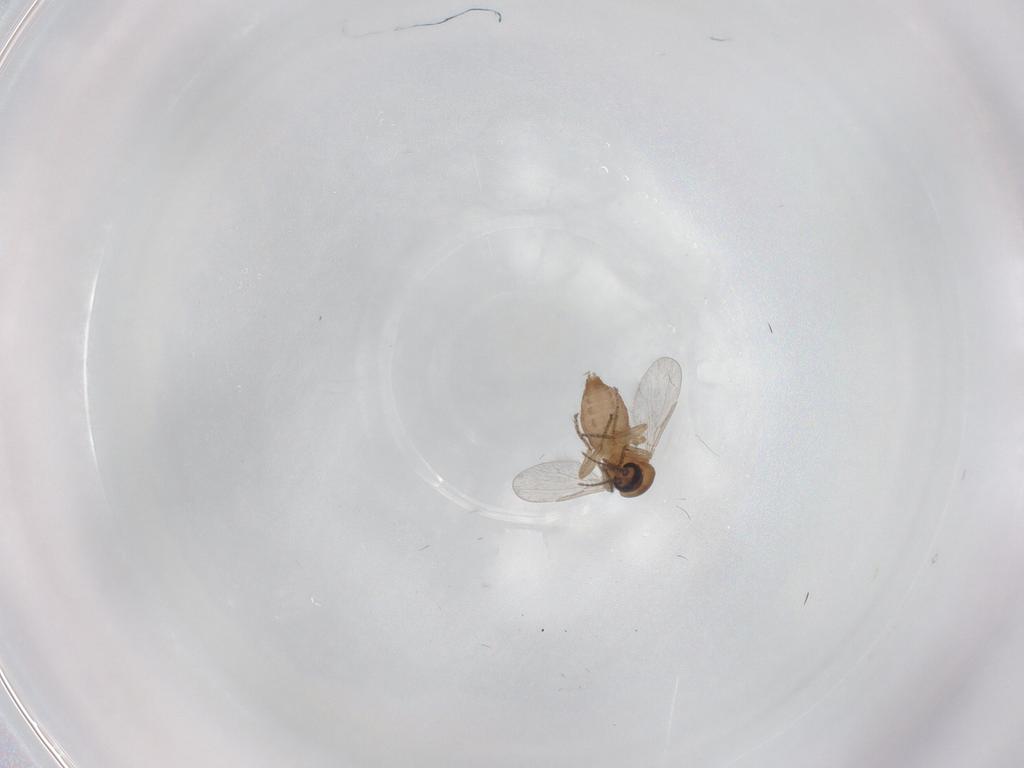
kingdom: Animalia
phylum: Arthropoda
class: Insecta
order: Diptera
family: Ceratopogonidae
